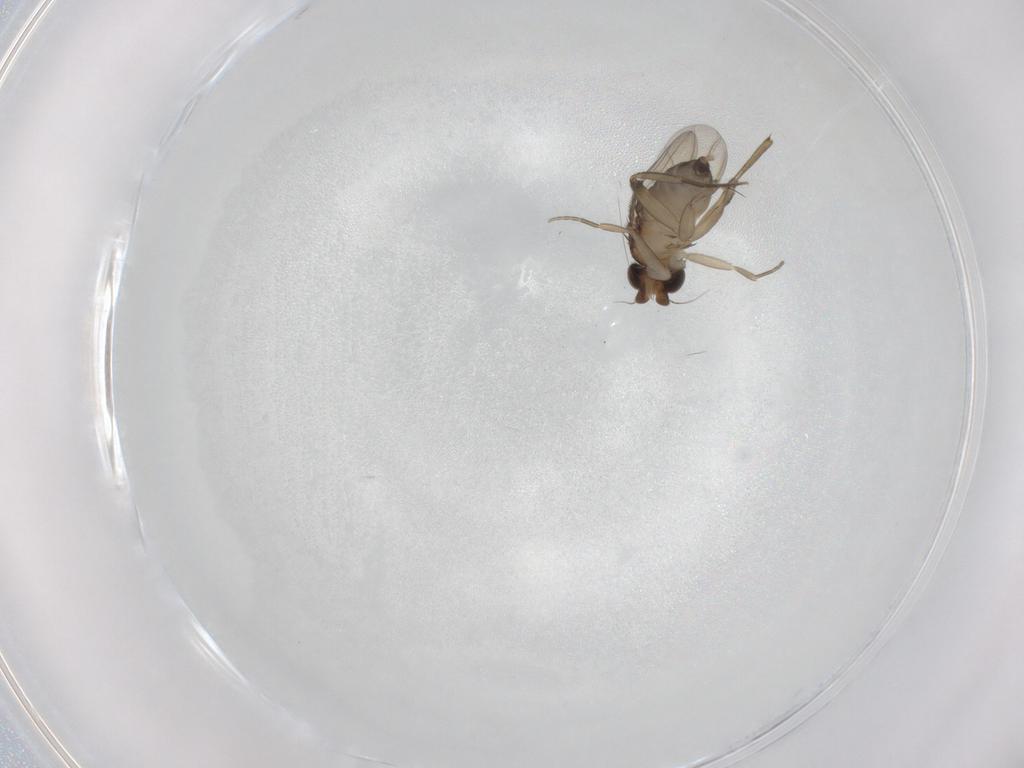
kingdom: Animalia
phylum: Arthropoda
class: Insecta
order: Diptera
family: Phoridae
